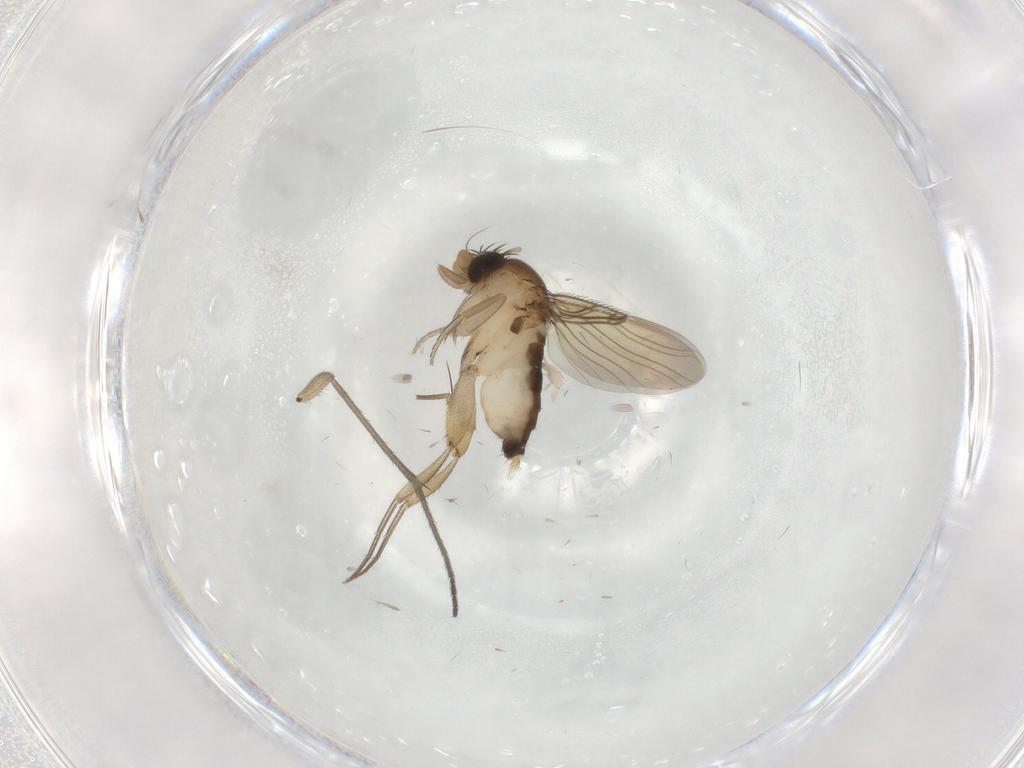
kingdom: Animalia
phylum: Arthropoda
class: Insecta
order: Diptera
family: Phoridae
